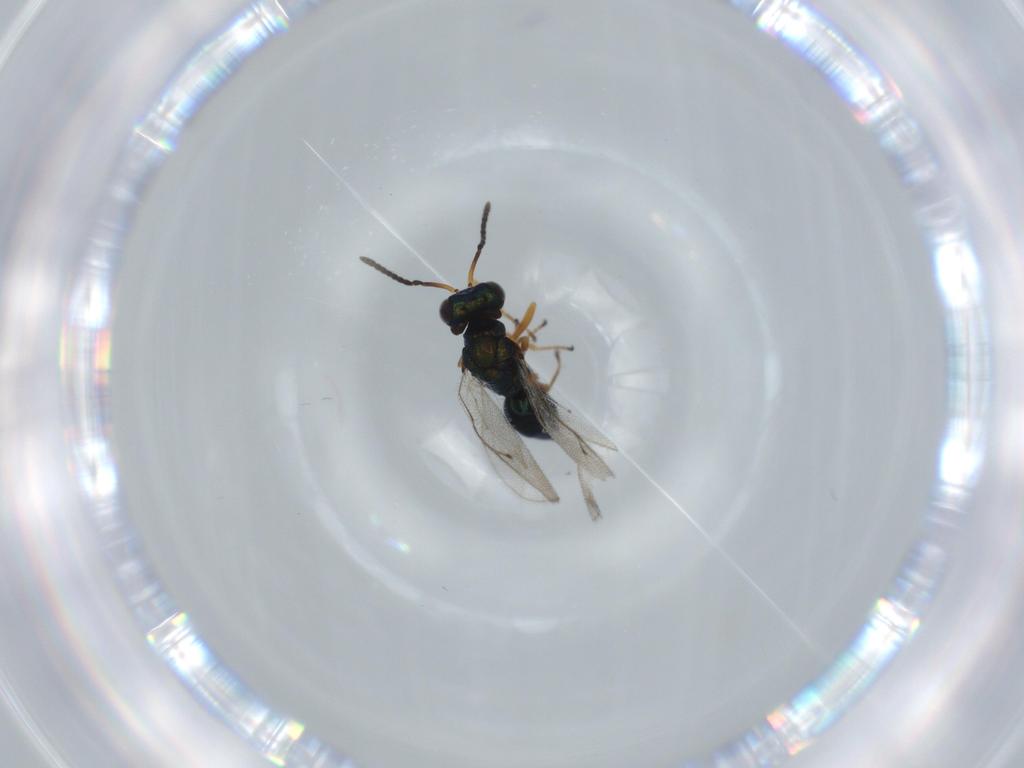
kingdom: Animalia
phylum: Arthropoda
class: Insecta
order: Hymenoptera
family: Pteromalidae
